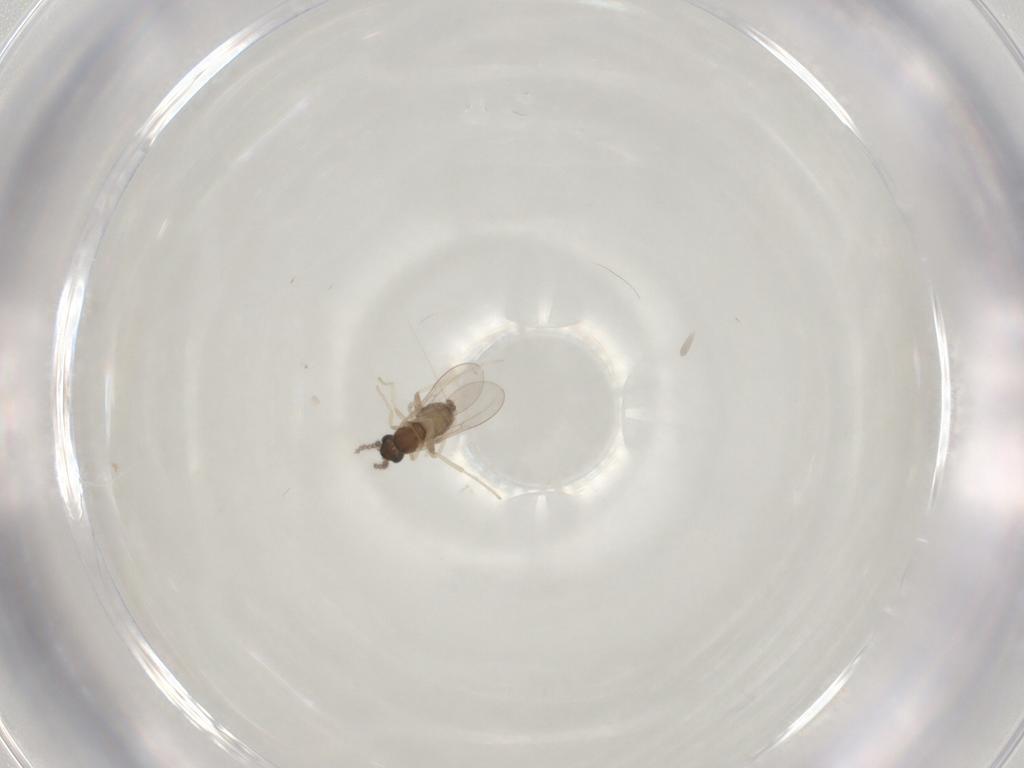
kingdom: Animalia
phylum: Arthropoda
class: Insecta
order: Diptera
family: Cecidomyiidae
